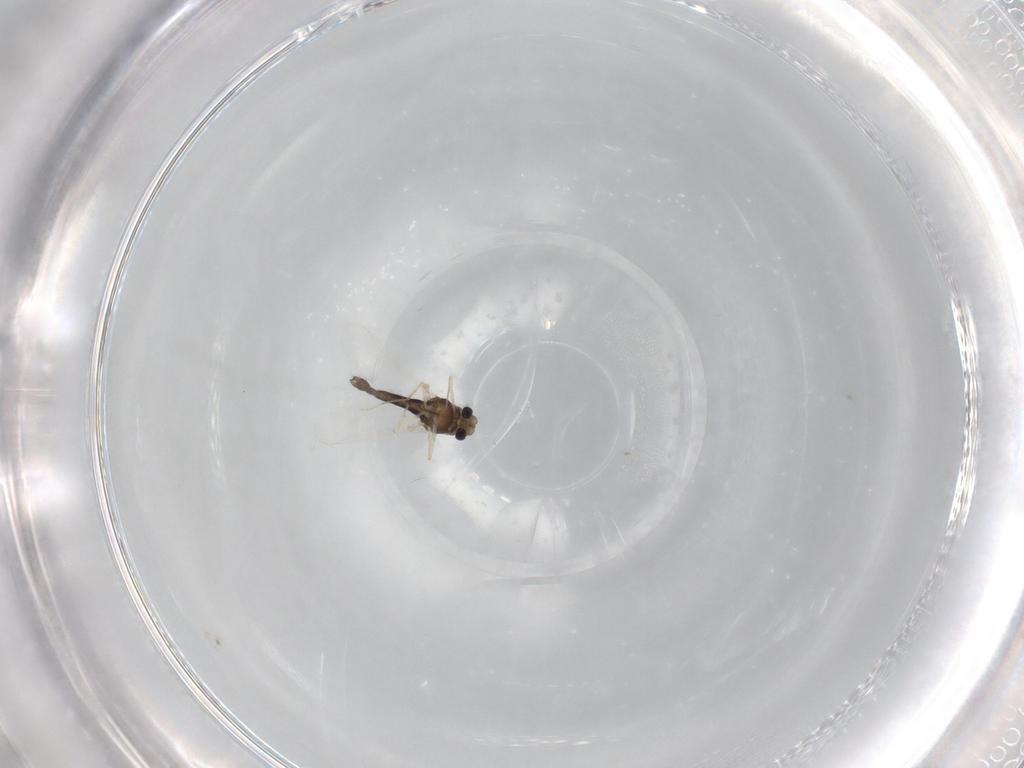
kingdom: Animalia
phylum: Arthropoda
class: Insecta
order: Diptera
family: Chironomidae
